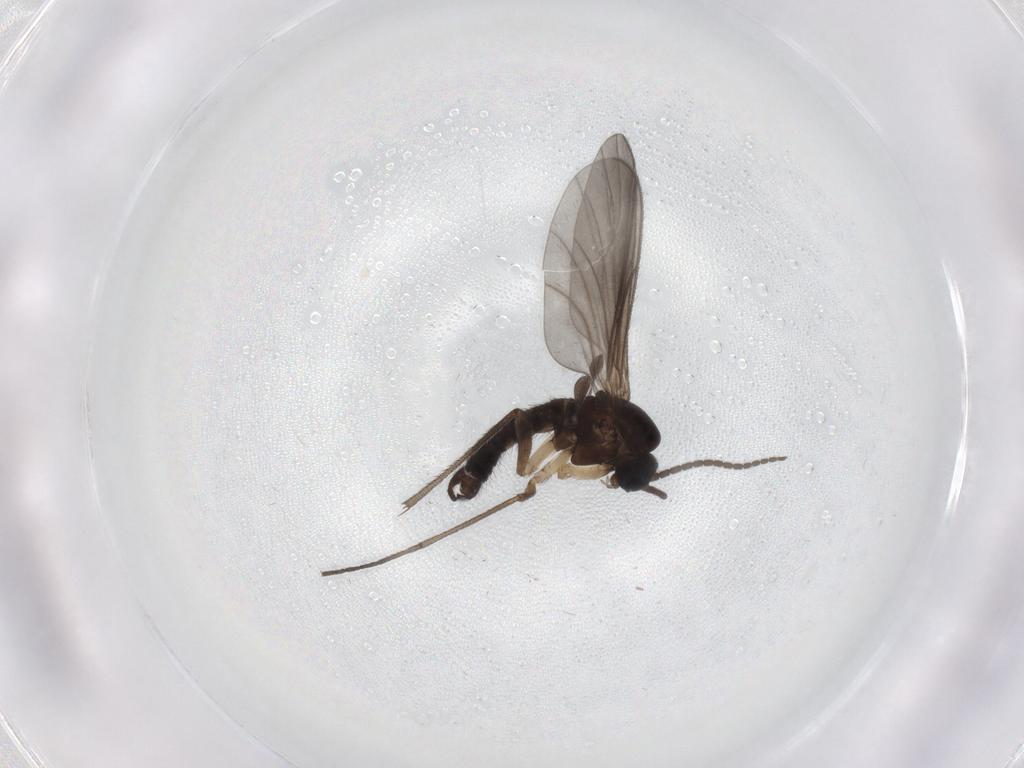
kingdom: Animalia
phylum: Arthropoda
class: Insecta
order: Diptera
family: Sciaridae
